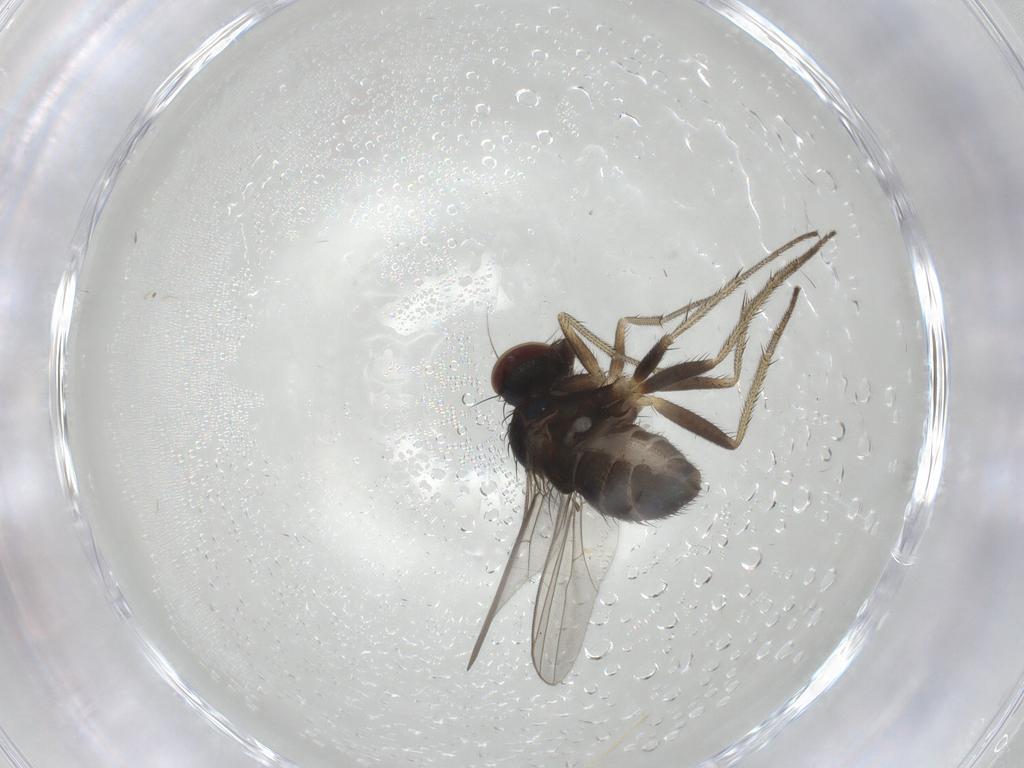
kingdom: Animalia
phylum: Arthropoda
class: Insecta
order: Diptera
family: Dolichopodidae
